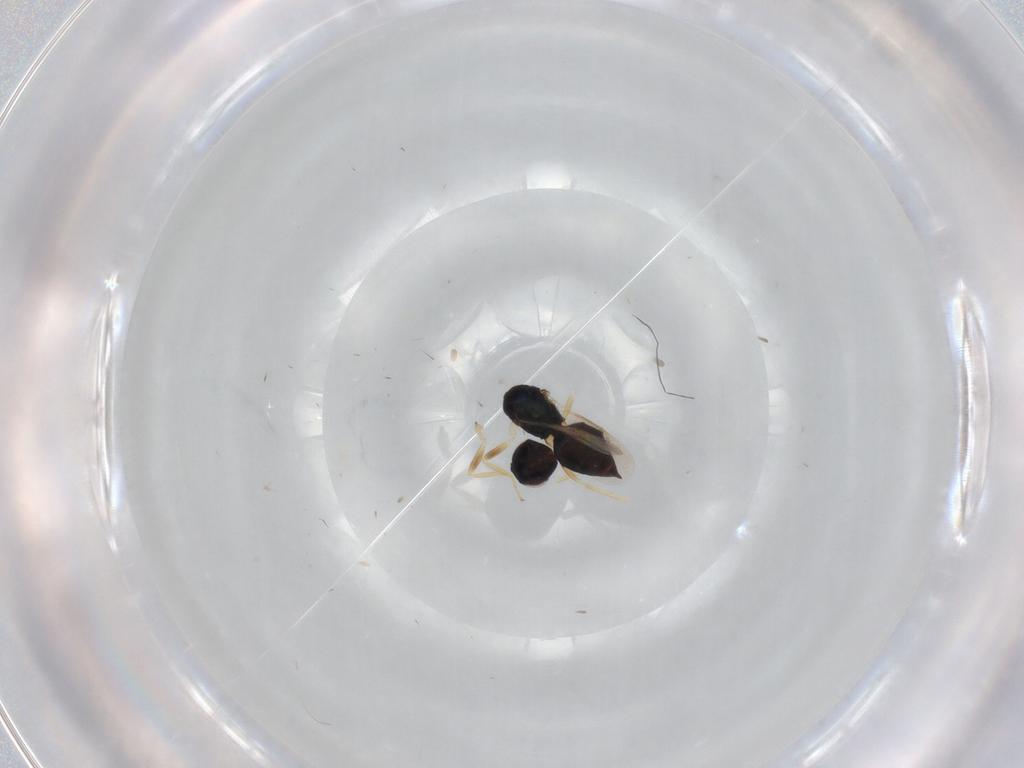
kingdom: Animalia
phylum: Arthropoda
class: Insecta
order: Hymenoptera
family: Eulophidae
